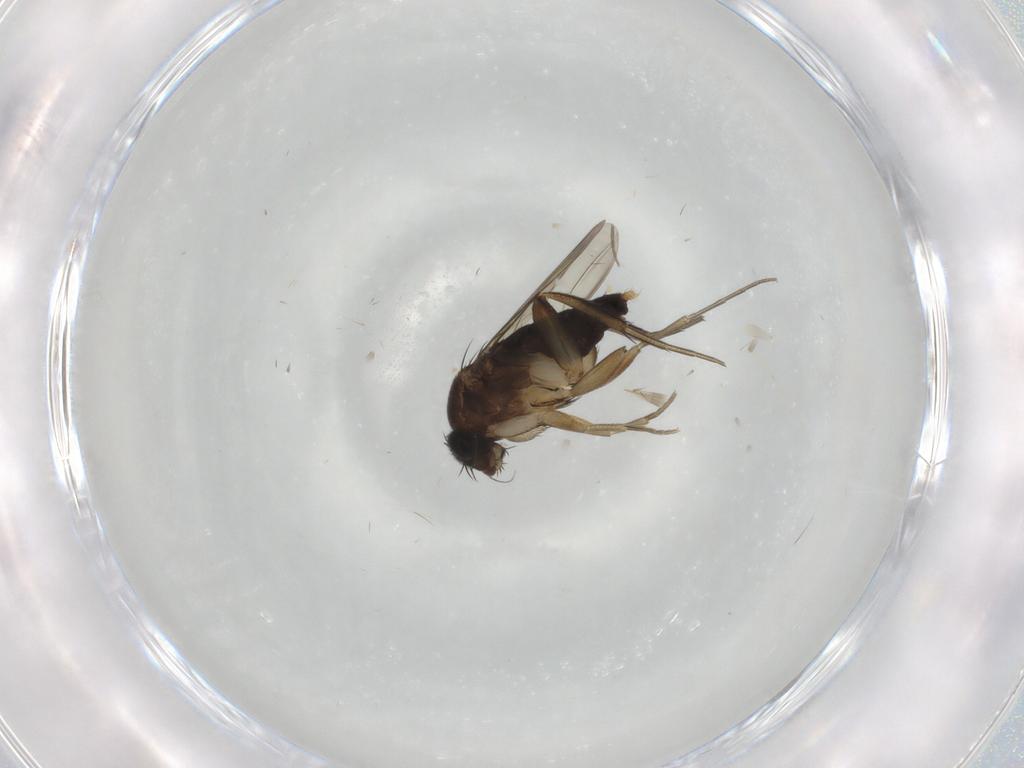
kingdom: Animalia
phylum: Arthropoda
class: Insecta
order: Diptera
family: Phoridae
